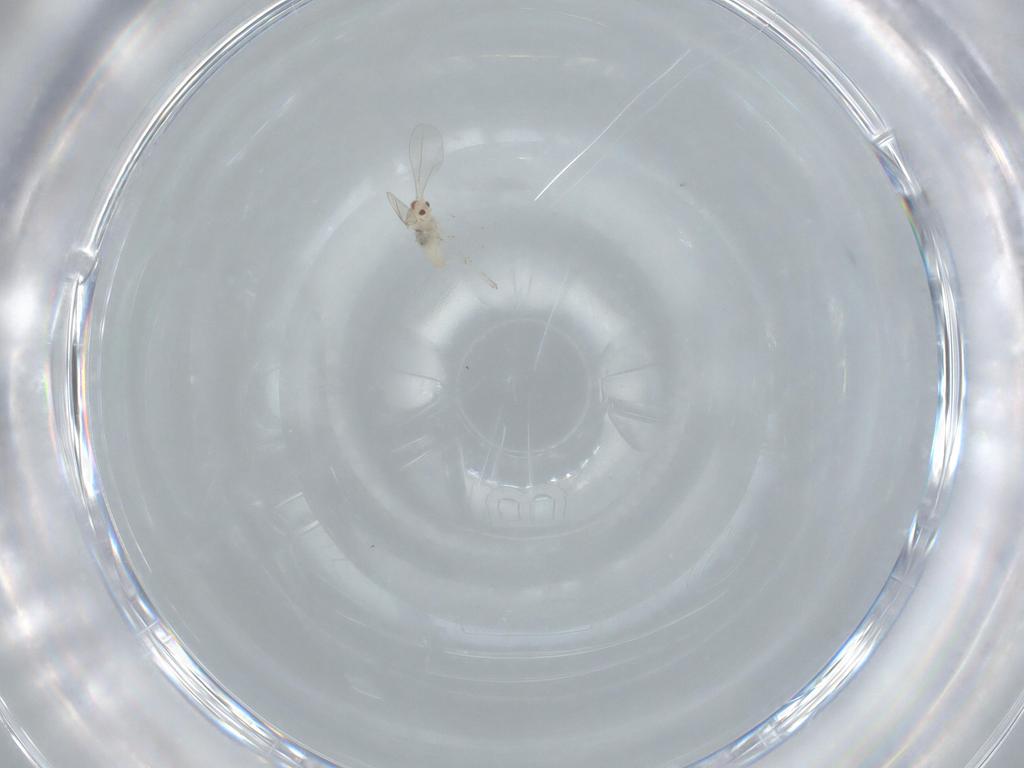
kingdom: Animalia
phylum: Arthropoda
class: Insecta
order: Diptera
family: Cecidomyiidae
